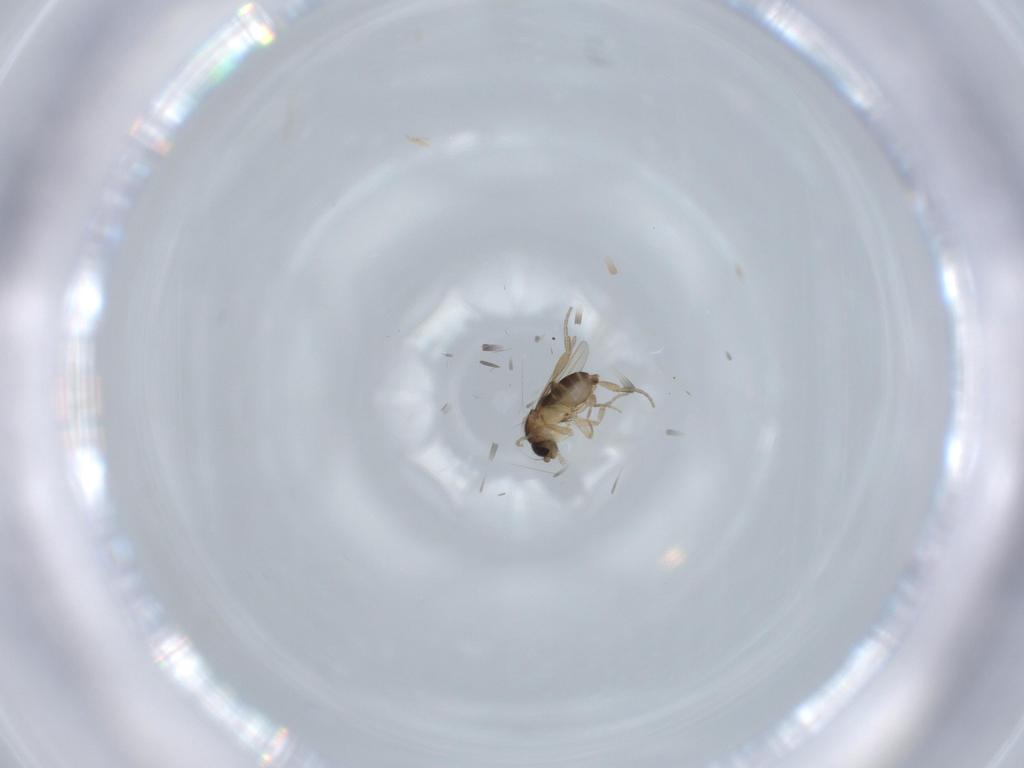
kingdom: Animalia
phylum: Arthropoda
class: Insecta
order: Diptera
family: Phoridae
